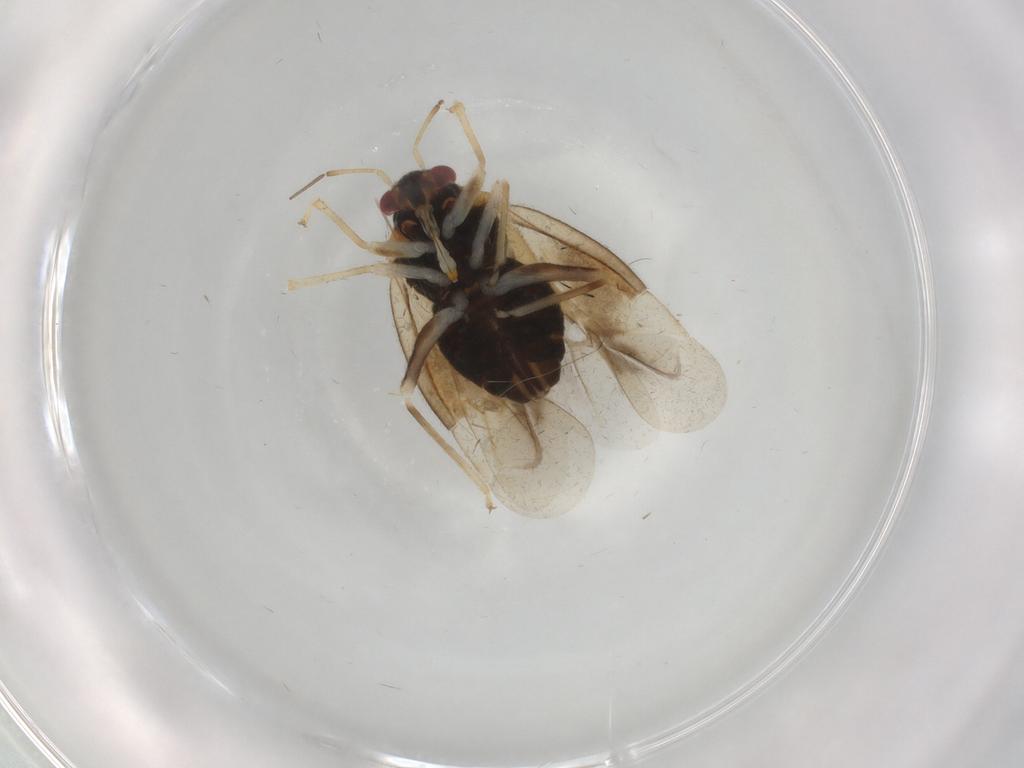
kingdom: Animalia
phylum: Arthropoda
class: Insecta
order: Hemiptera
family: Miridae
